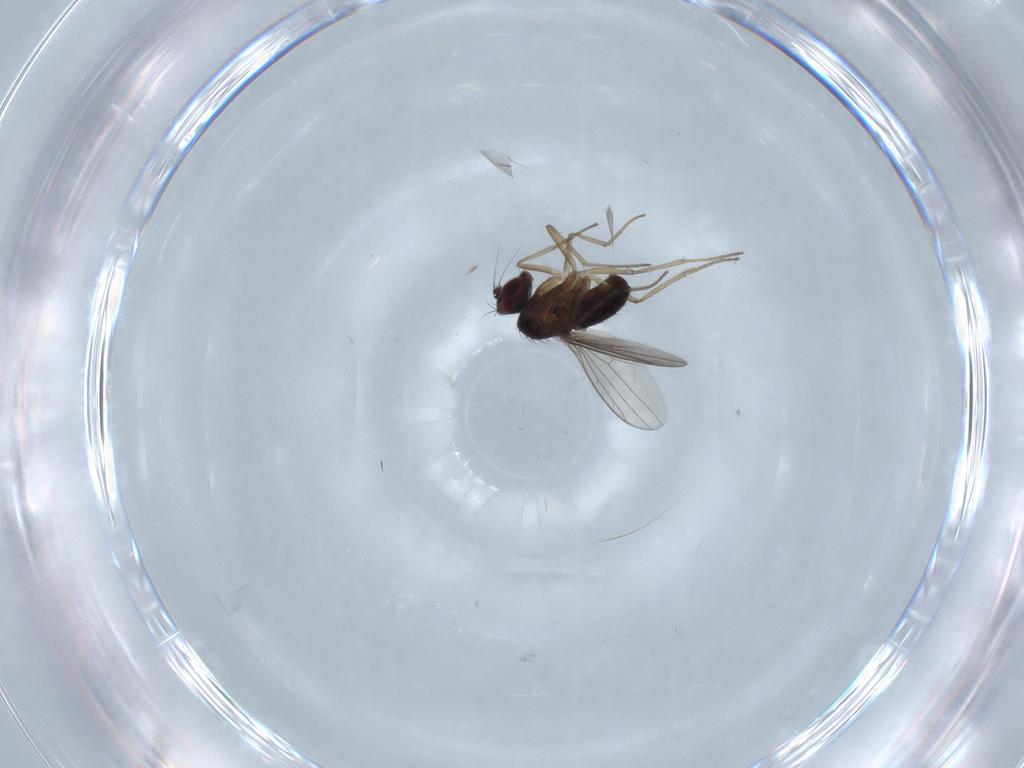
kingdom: Animalia
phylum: Arthropoda
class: Insecta
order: Diptera
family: Dolichopodidae
